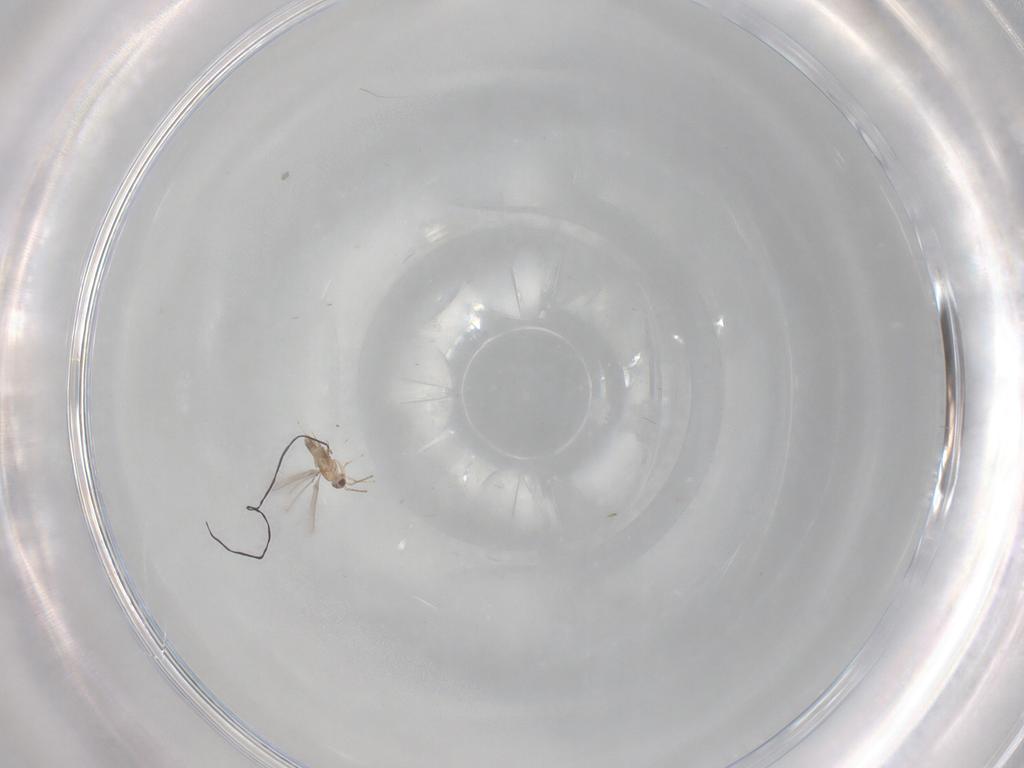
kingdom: Animalia
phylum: Arthropoda
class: Insecta
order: Hymenoptera
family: Mymaridae
